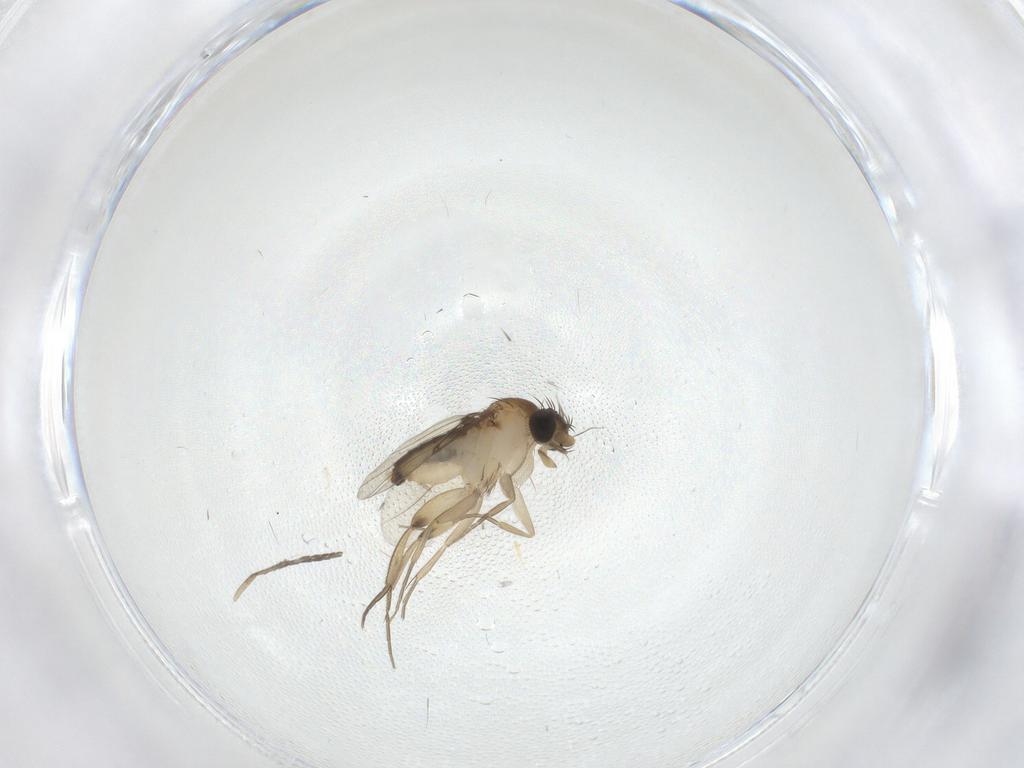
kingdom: Animalia
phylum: Arthropoda
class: Insecta
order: Diptera
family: Phoridae
